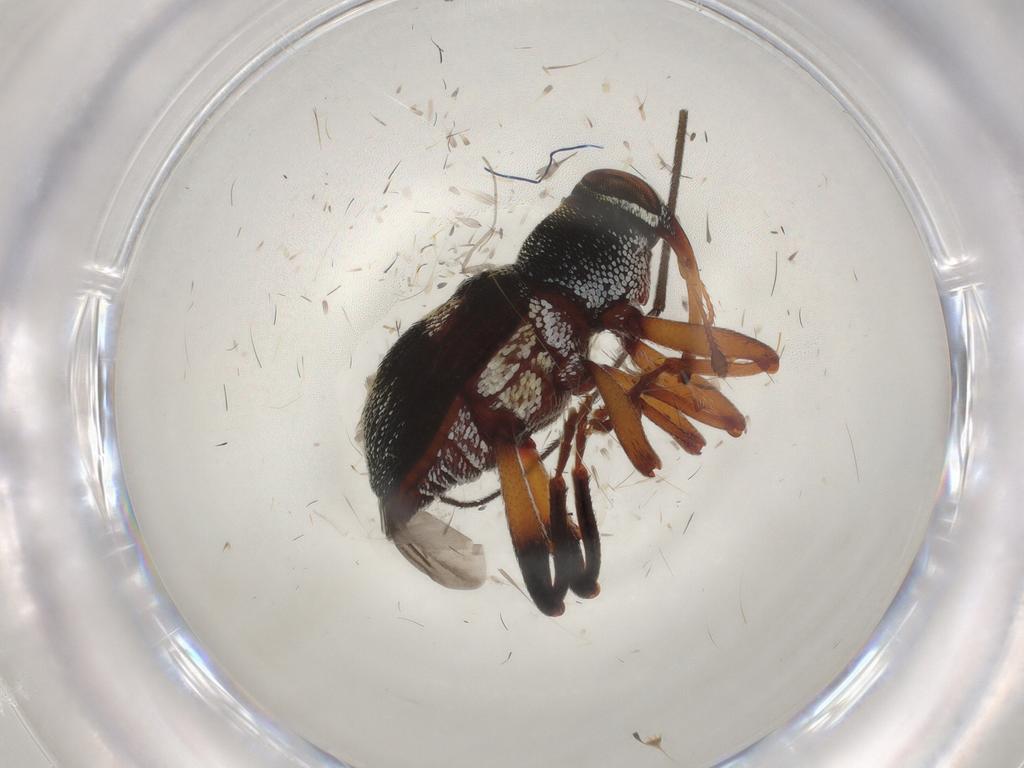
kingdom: Animalia
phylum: Arthropoda
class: Insecta
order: Coleoptera
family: Curculionidae
